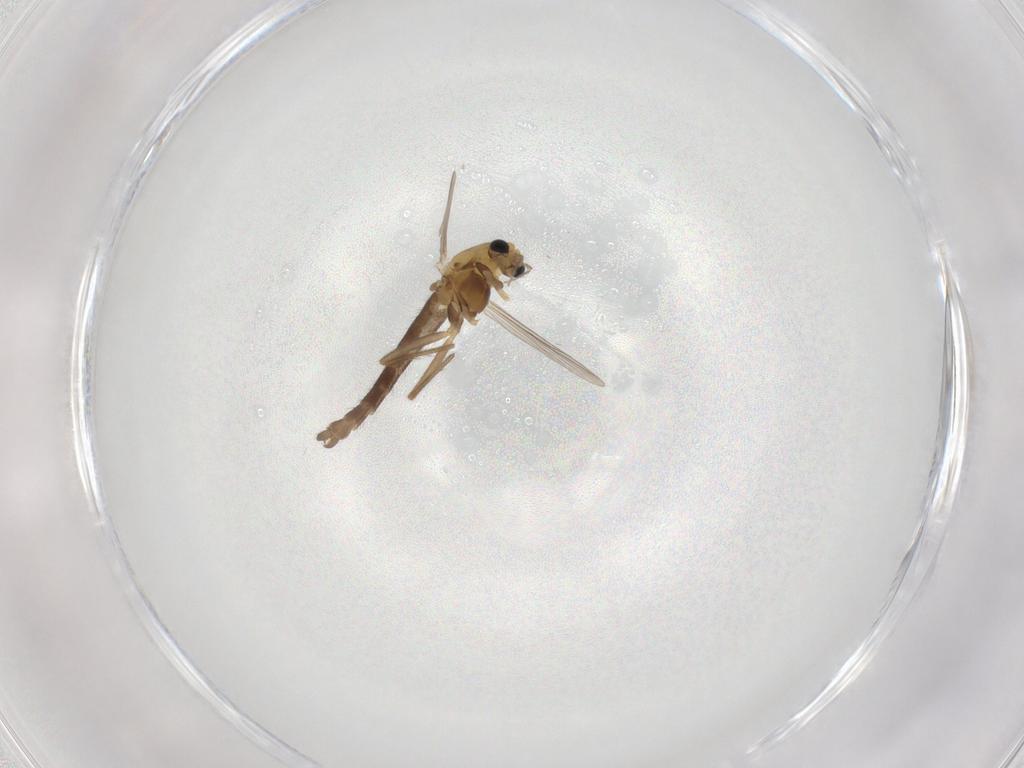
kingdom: Animalia
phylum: Arthropoda
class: Insecta
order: Diptera
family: Chironomidae
